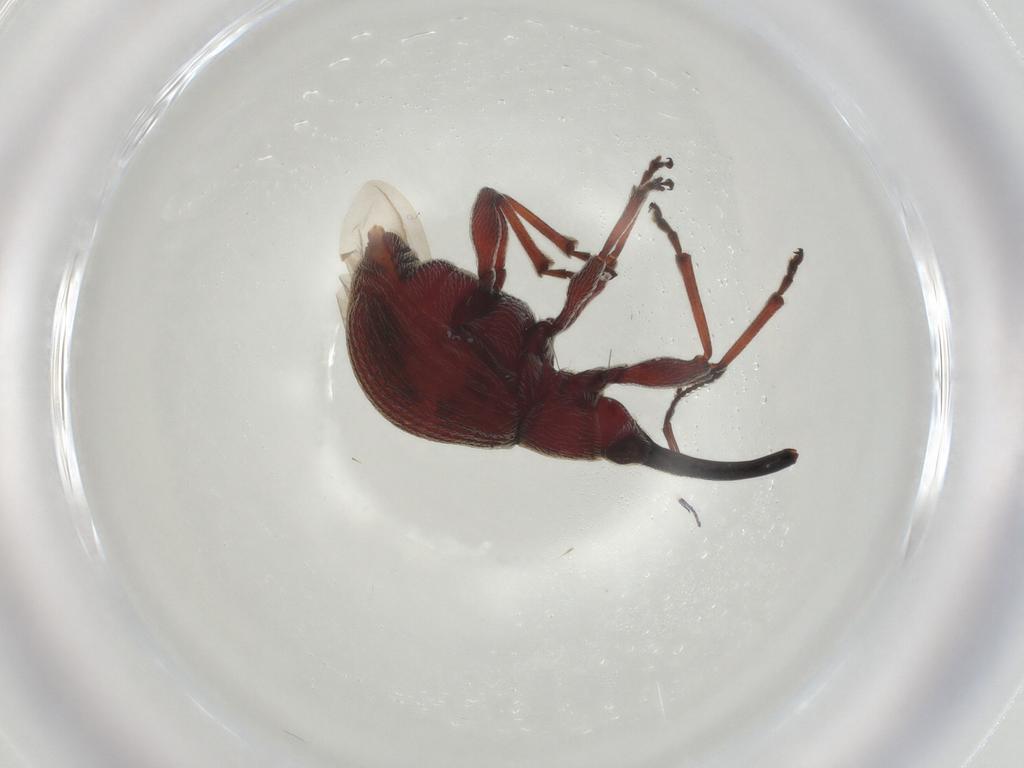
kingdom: Animalia
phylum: Arthropoda
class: Insecta
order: Coleoptera
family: Brentidae
